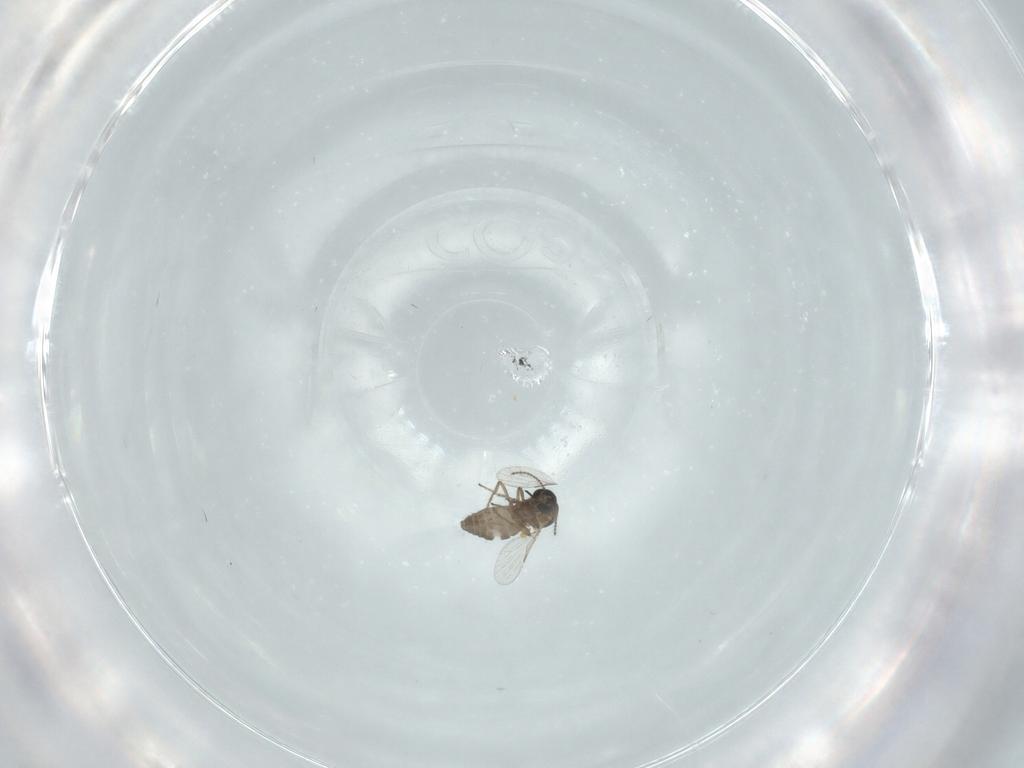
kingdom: Animalia
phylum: Arthropoda
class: Insecta
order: Diptera
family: Ceratopogonidae
